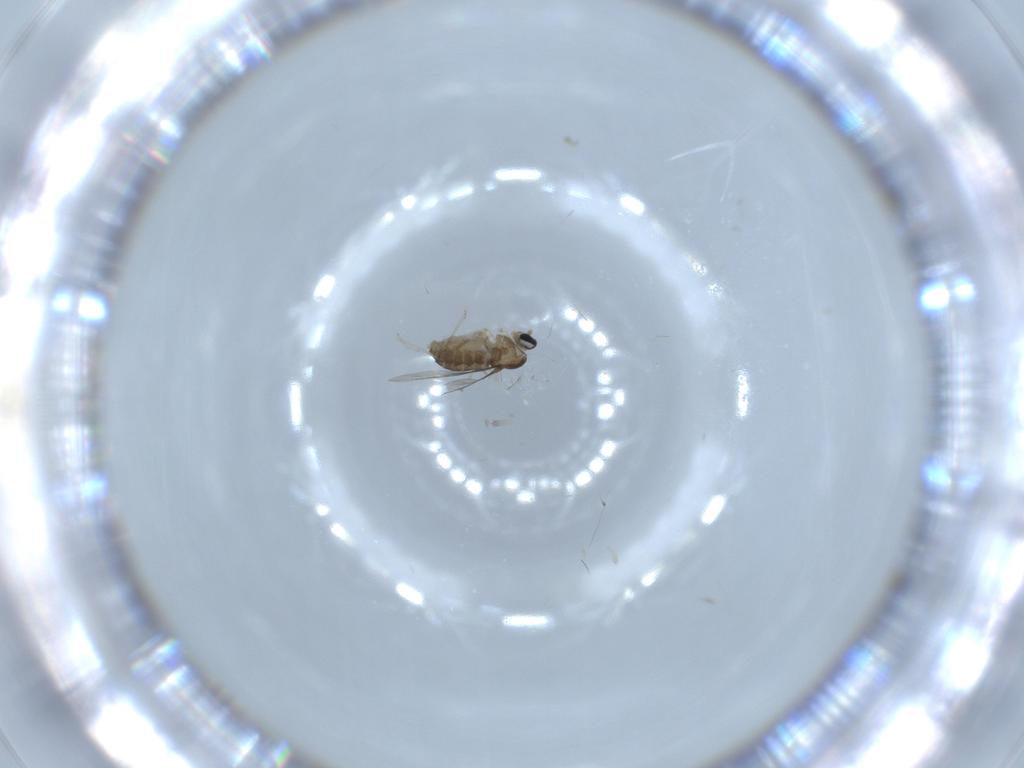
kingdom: Animalia
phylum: Arthropoda
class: Insecta
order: Diptera
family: Cecidomyiidae
